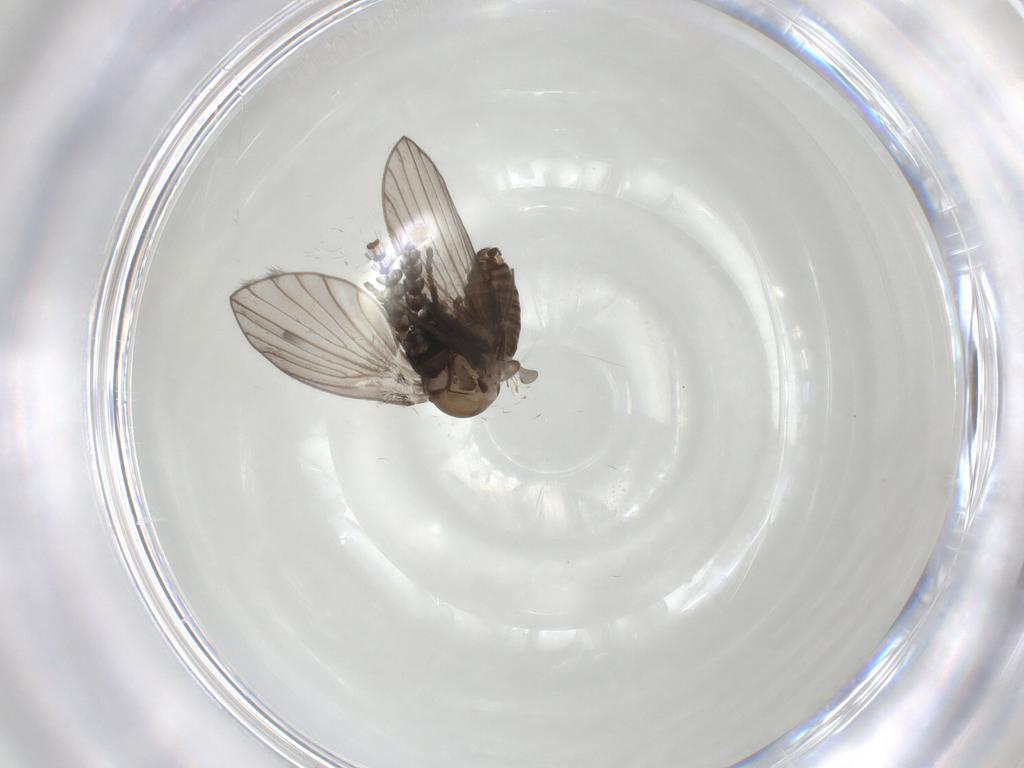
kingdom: Animalia
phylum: Arthropoda
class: Insecta
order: Diptera
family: Psychodidae
